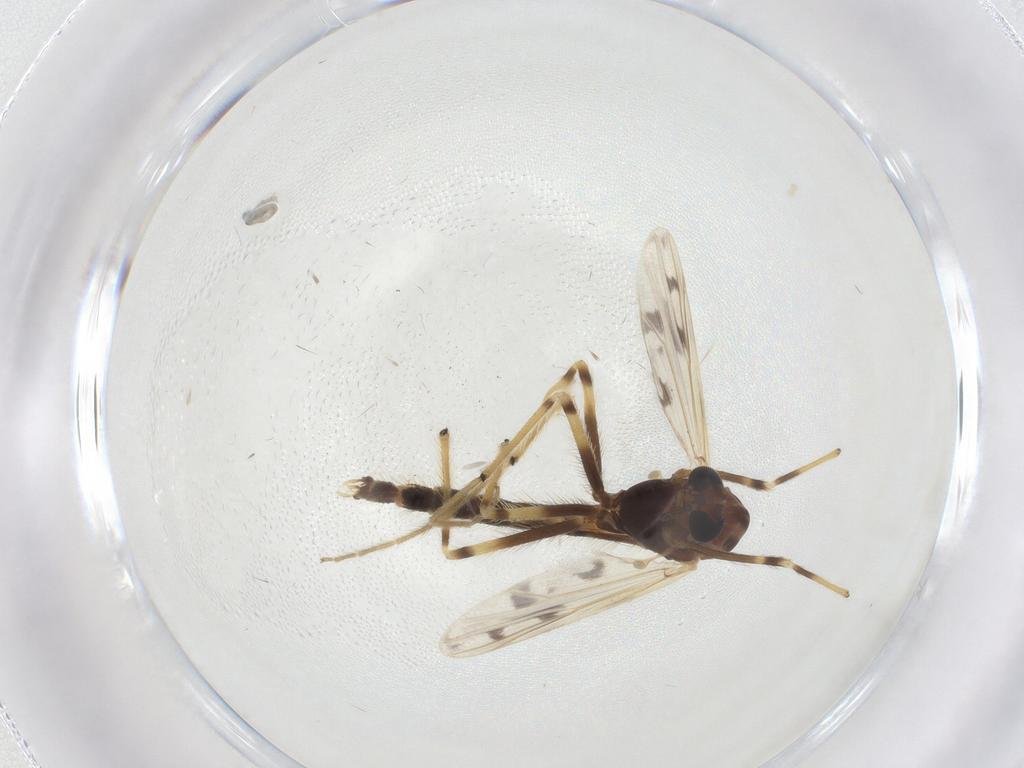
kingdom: Animalia
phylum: Arthropoda
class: Insecta
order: Diptera
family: Chironomidae
